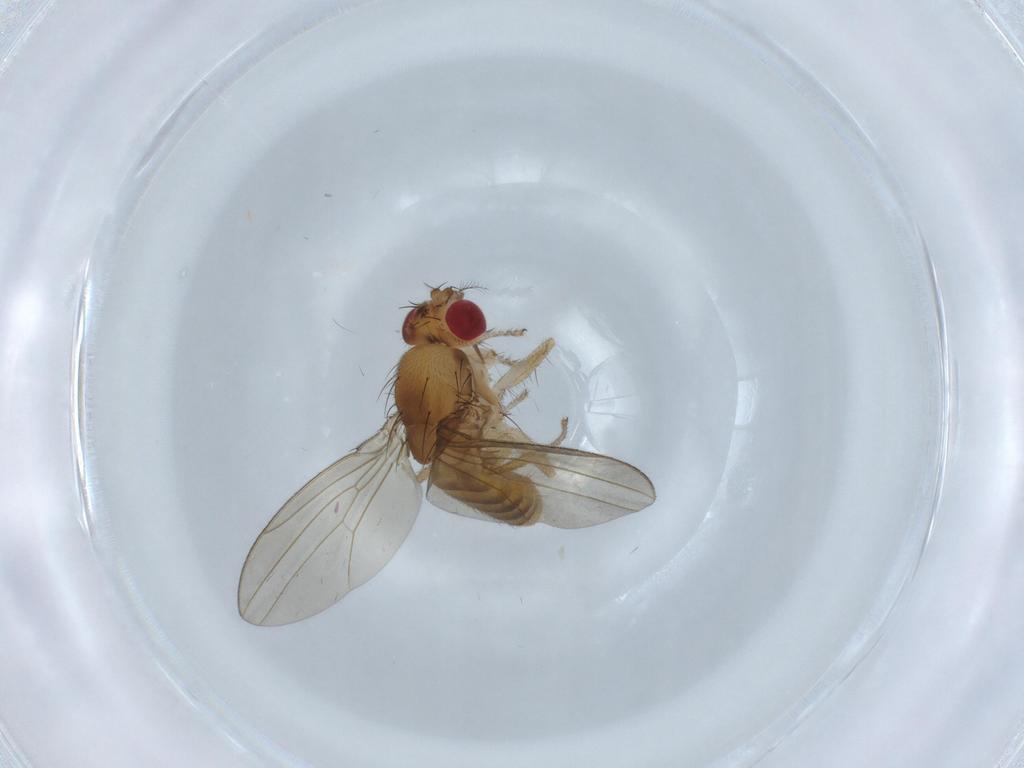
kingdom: Animalia
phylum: Arthropoda
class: Insecta
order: Diptera
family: Drosophilidae
